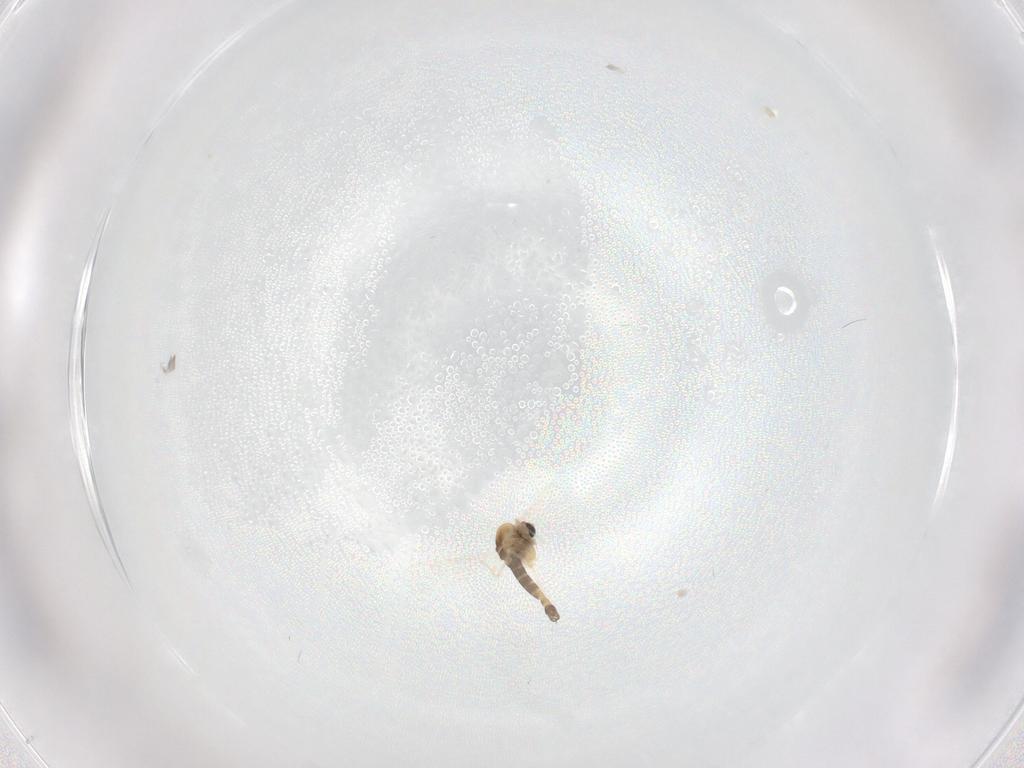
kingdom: Animalia
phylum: Arthropoda
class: Insecta
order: Diptera
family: Chironomidae
